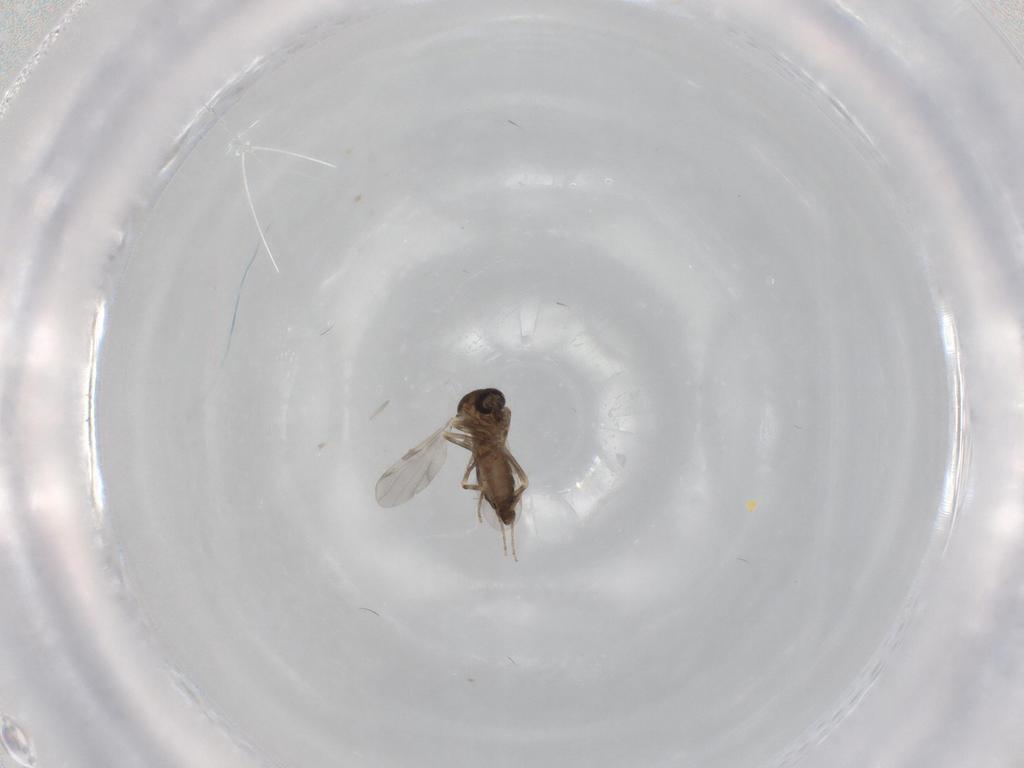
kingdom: Animalia
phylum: Arthropoda
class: Insecta
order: Diptera
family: Ceratopogonidae
